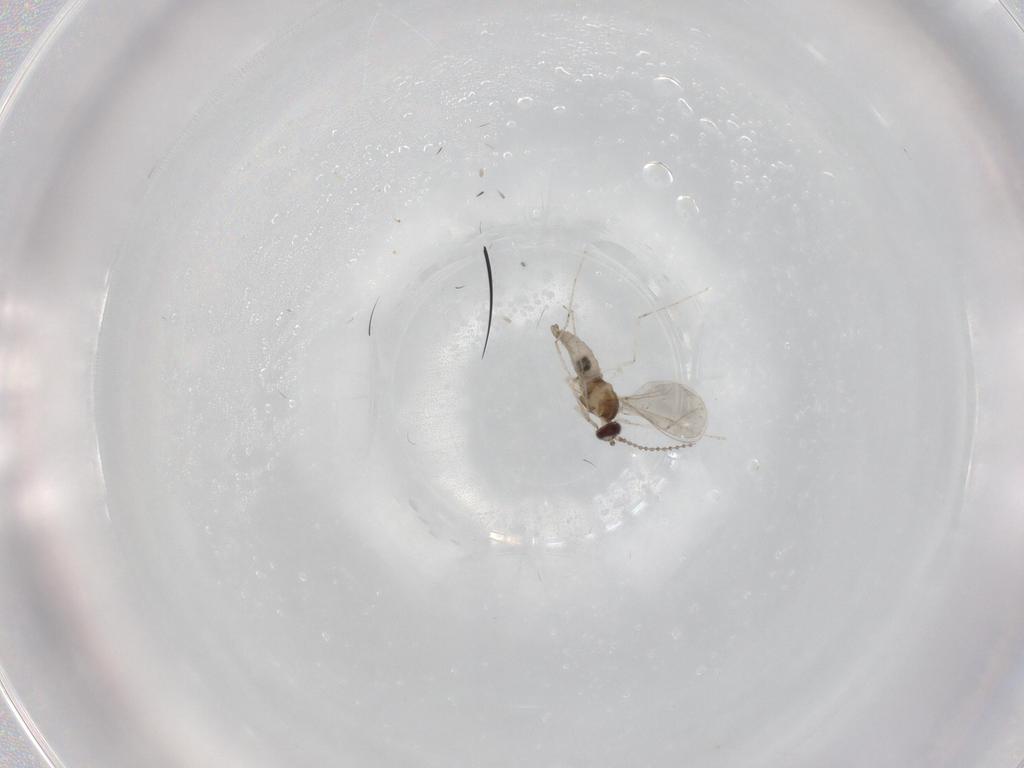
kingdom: Animalia
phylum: Arthropoda
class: Insecta
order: Diptera
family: Cecidomyiidae
